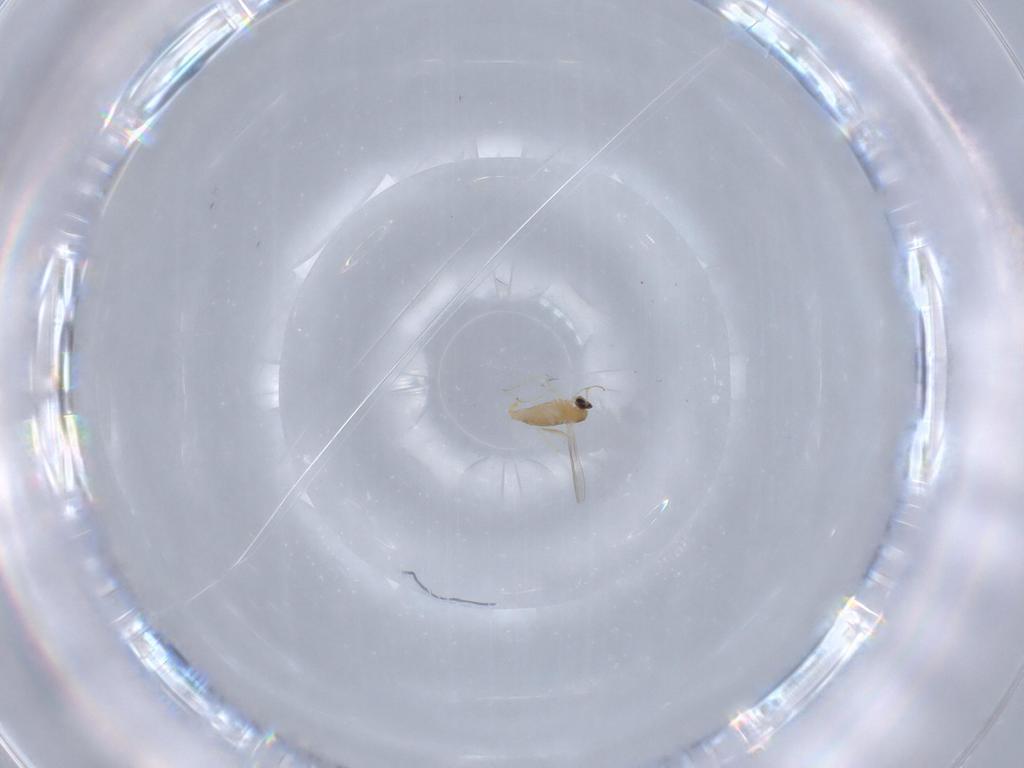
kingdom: Animalia
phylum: Arthropoda
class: Insecta
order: Diptera
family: Cecidomyiidae
